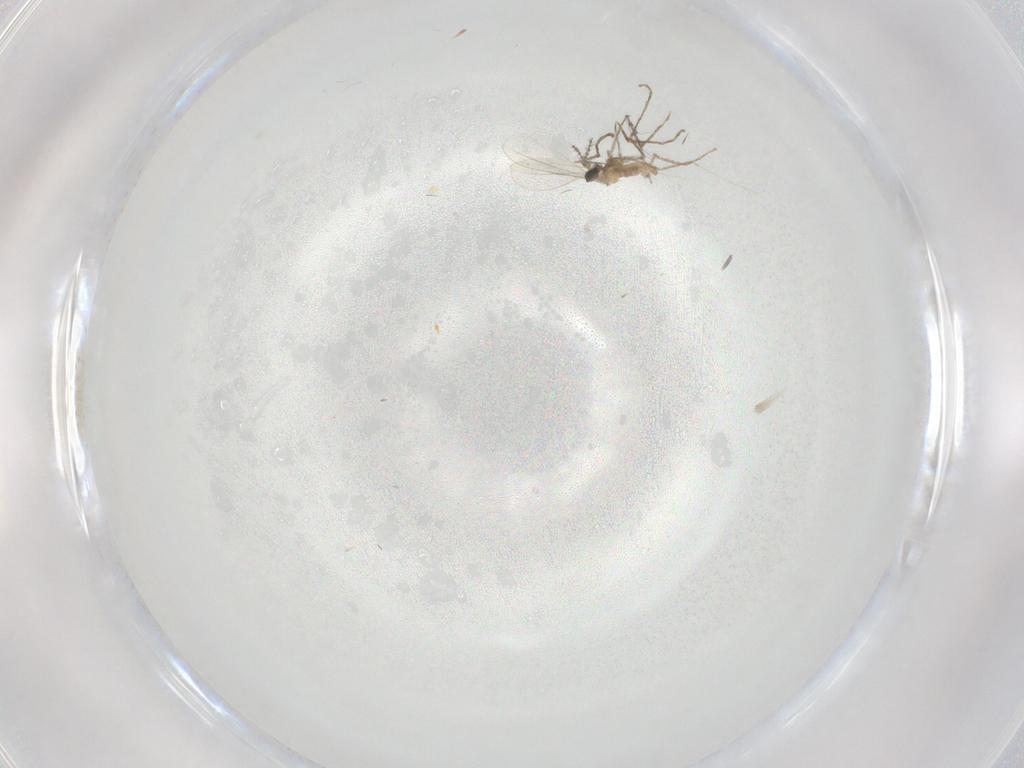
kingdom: Animalia
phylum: Arthropoda
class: Insecta
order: Diptera
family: Cecidomyiidae
